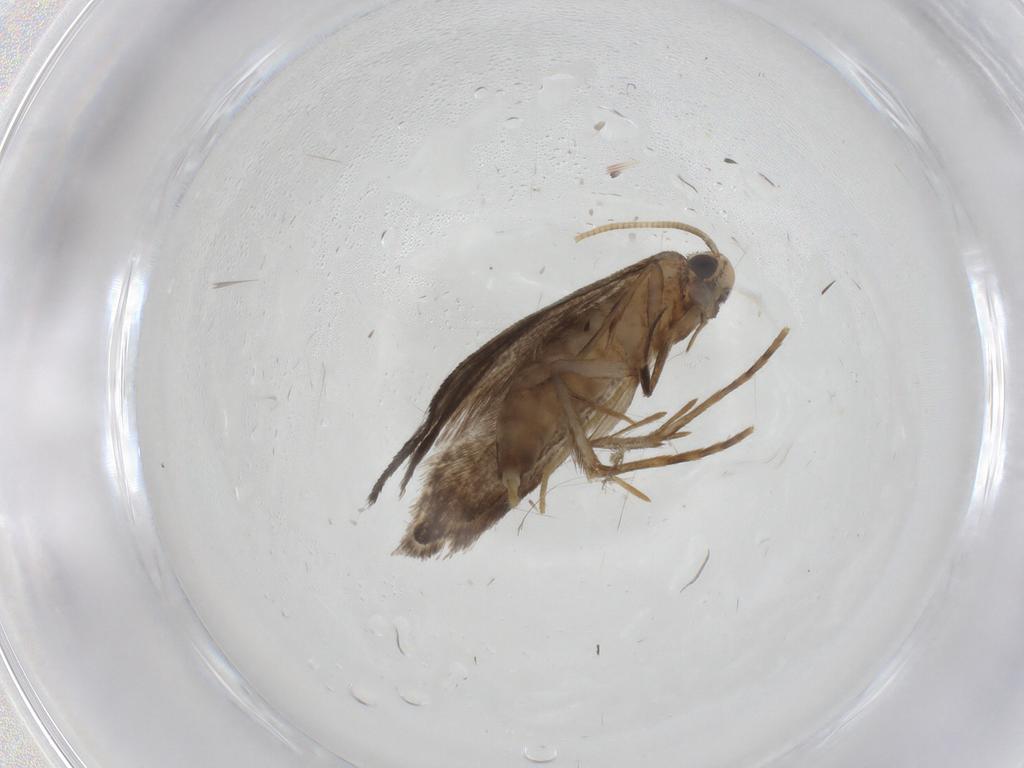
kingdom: Animalia
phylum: Arthropoda
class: Insecta
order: Lepidoptera
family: Tineidae
